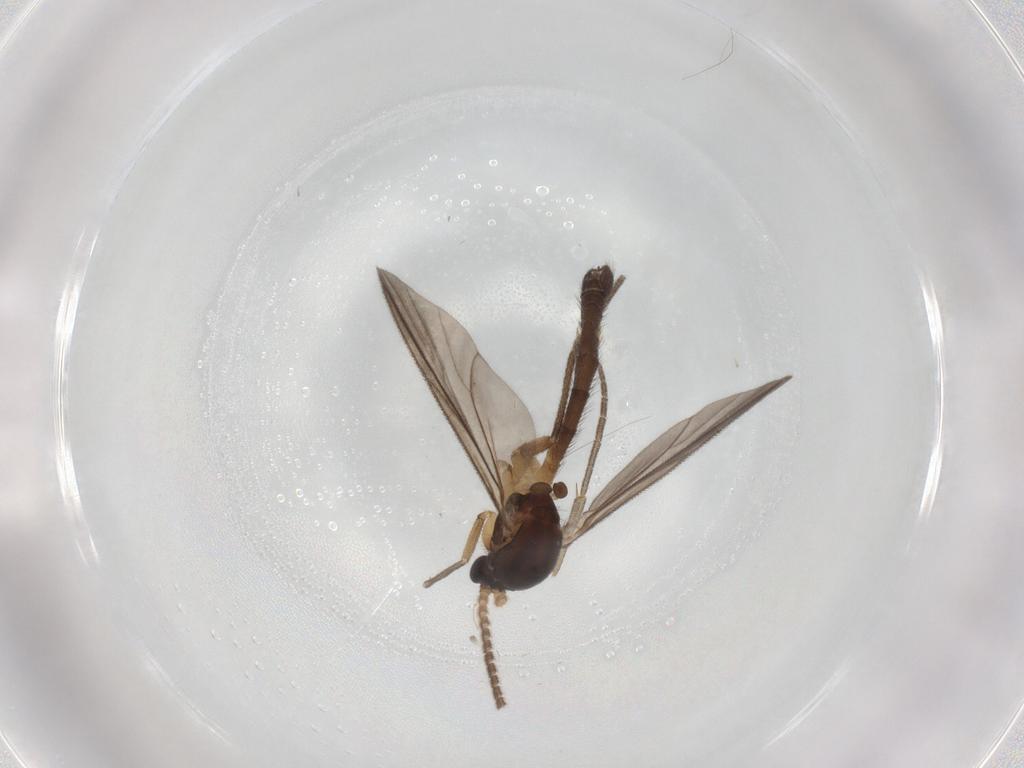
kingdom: Animalia
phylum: Arthropoda
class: Insecta
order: Diptera
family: Mycetophilidae
